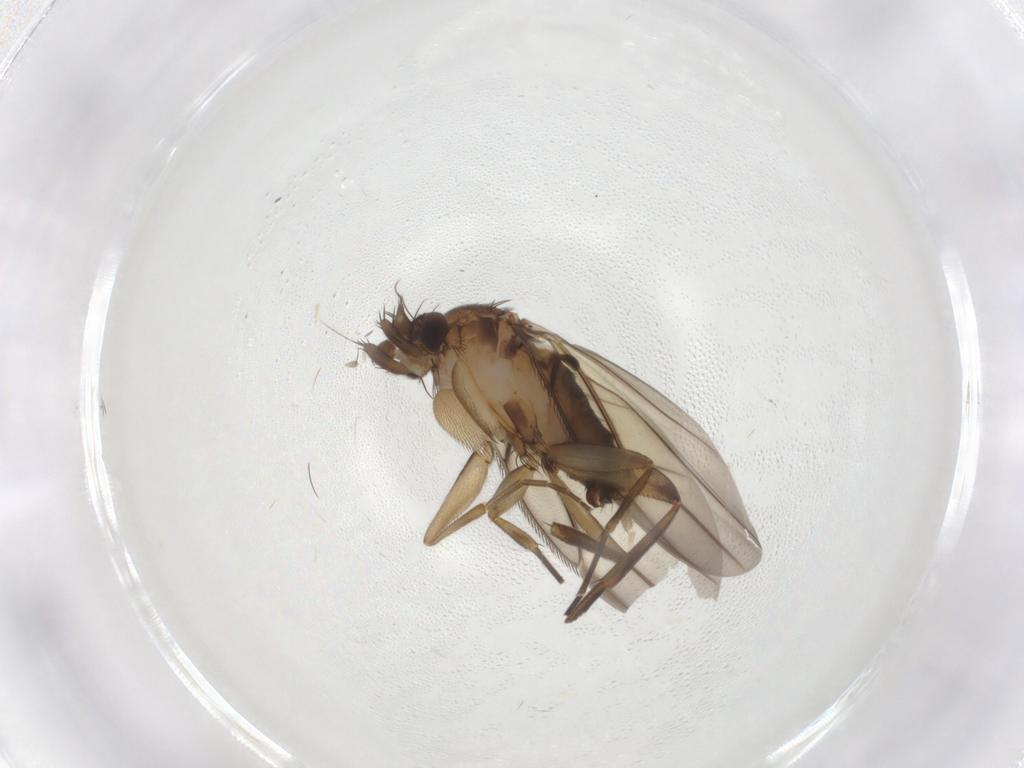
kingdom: Animalia
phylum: Arthropoda
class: Insecta
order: Diptera
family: Phoridae
